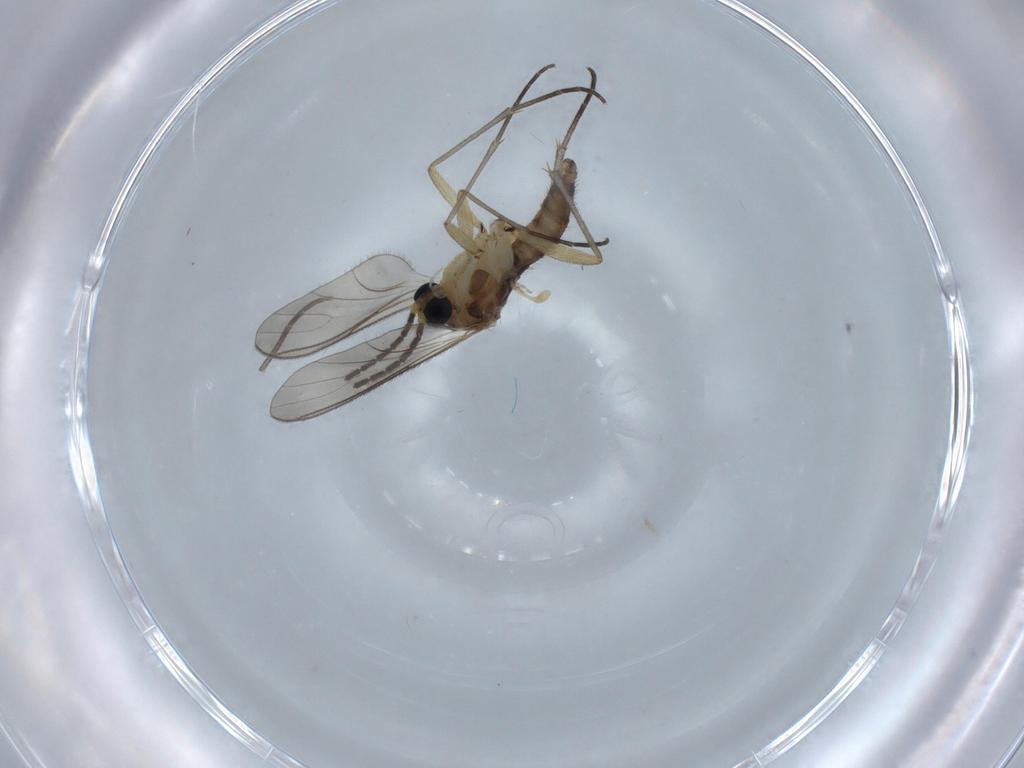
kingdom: Animalia
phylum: Arthropoda
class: Insecta
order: Diptera
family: Sciaridae
